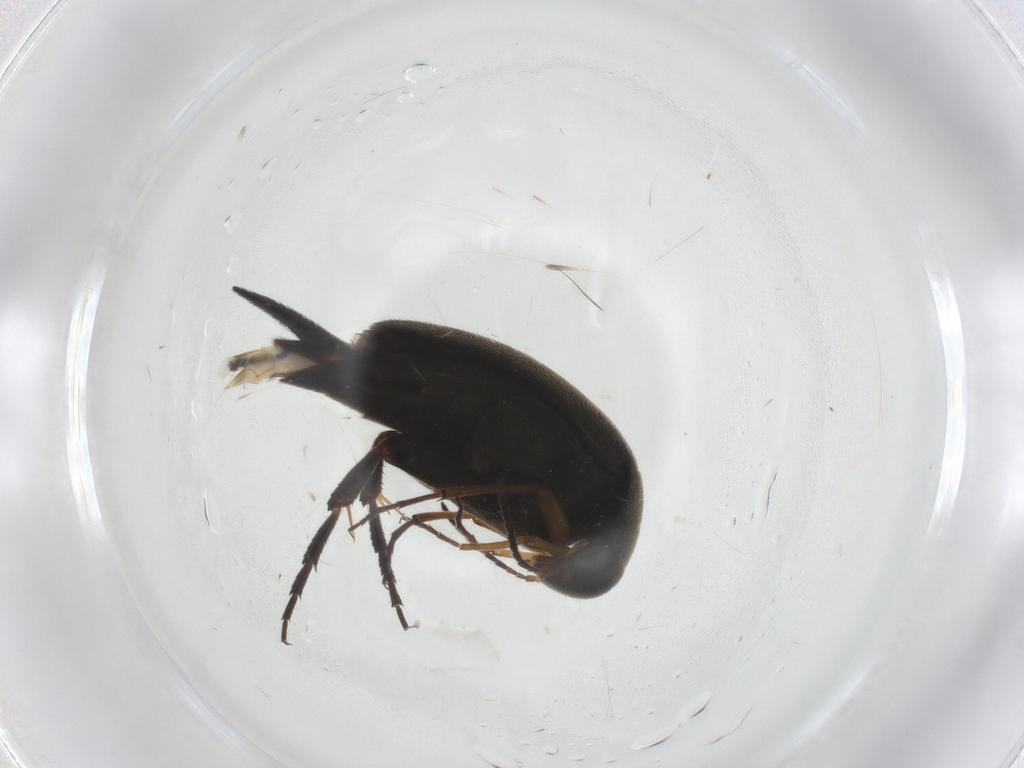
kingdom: Animalia
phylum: Arthropoda
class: Insecta
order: Coleoptera
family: Mordellidae
